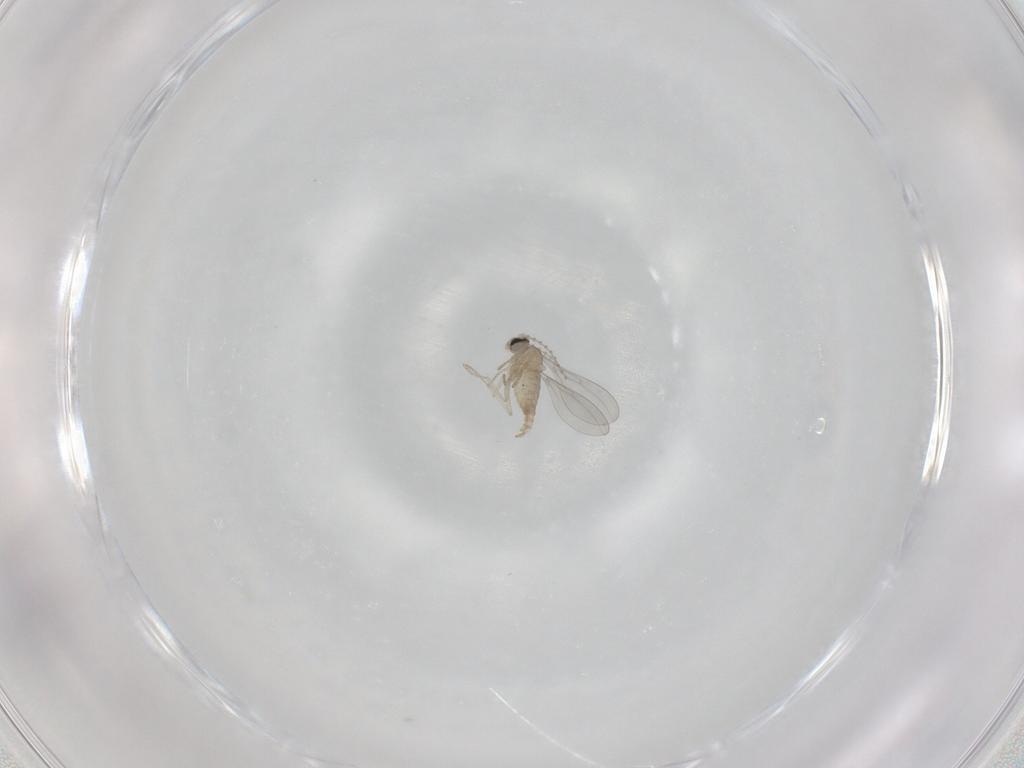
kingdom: Animalia
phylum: Arthropoda
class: Insecta
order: Diptera
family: Cecidomyiidae
